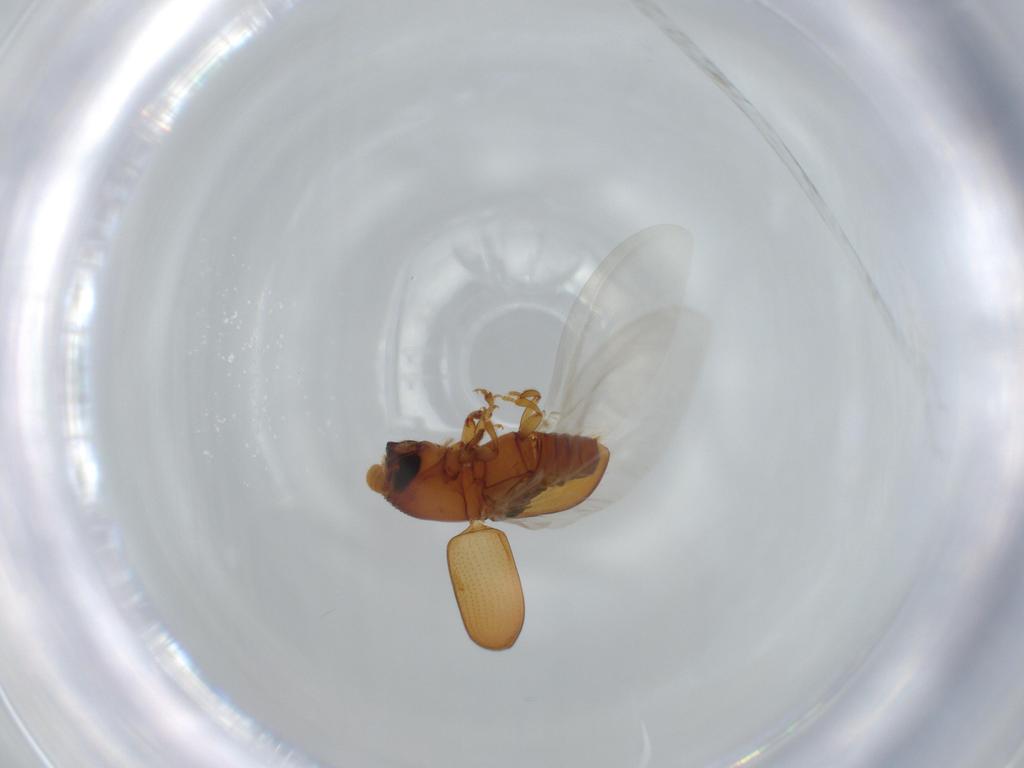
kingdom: Animalia
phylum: Arthropoda
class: Insecta
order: Coleoptera
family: Curculionidae
